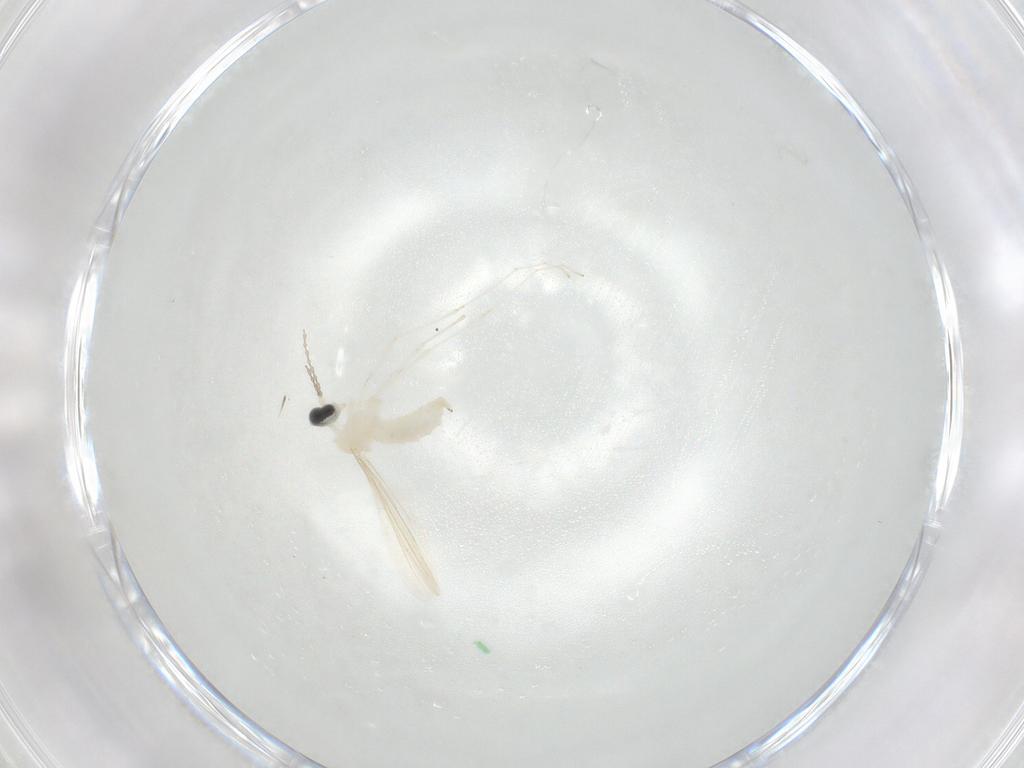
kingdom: Animalia
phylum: Arthropoda
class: Insecta
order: Diptera
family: Cecidomyiidae
